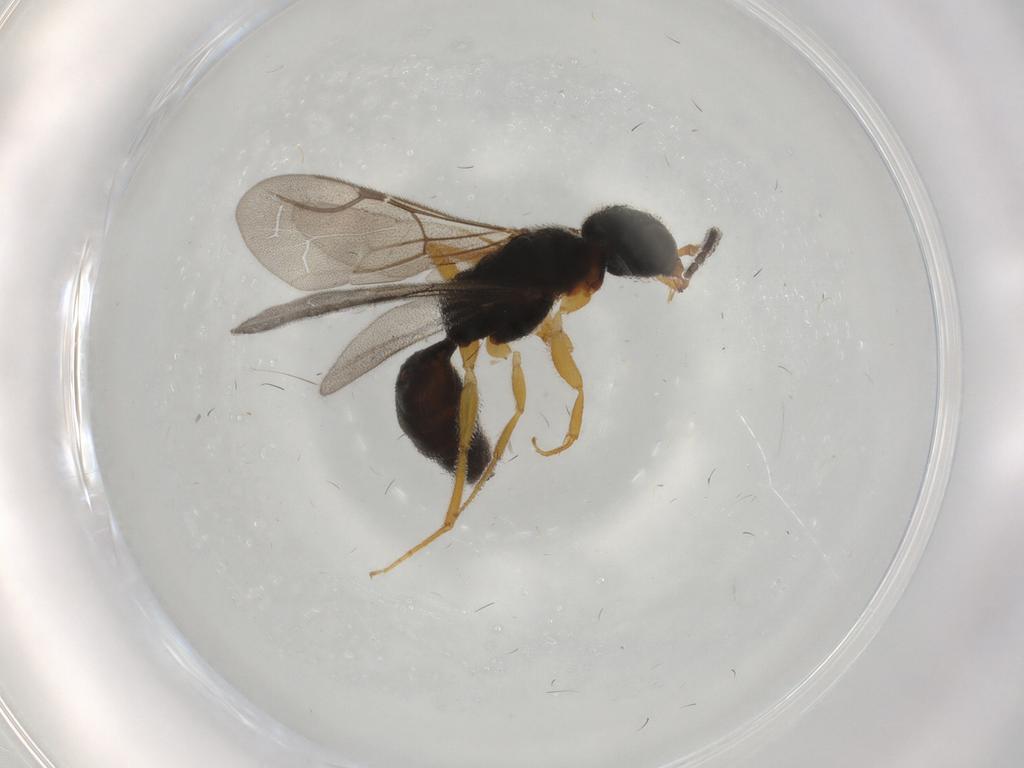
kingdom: Animalia
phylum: Arthropoda
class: Insecta
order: Hymenoptera
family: Bethylidae
